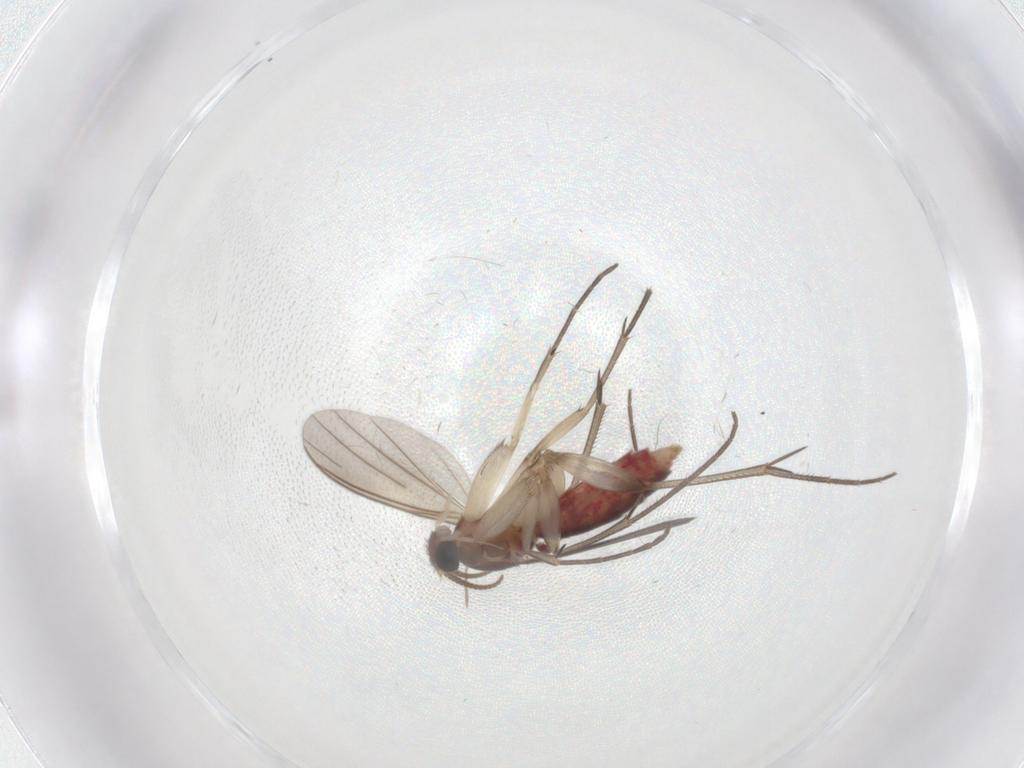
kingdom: Animalia
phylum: Arthropoda
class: Insecta
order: Diptera
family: Mycetophilidae
